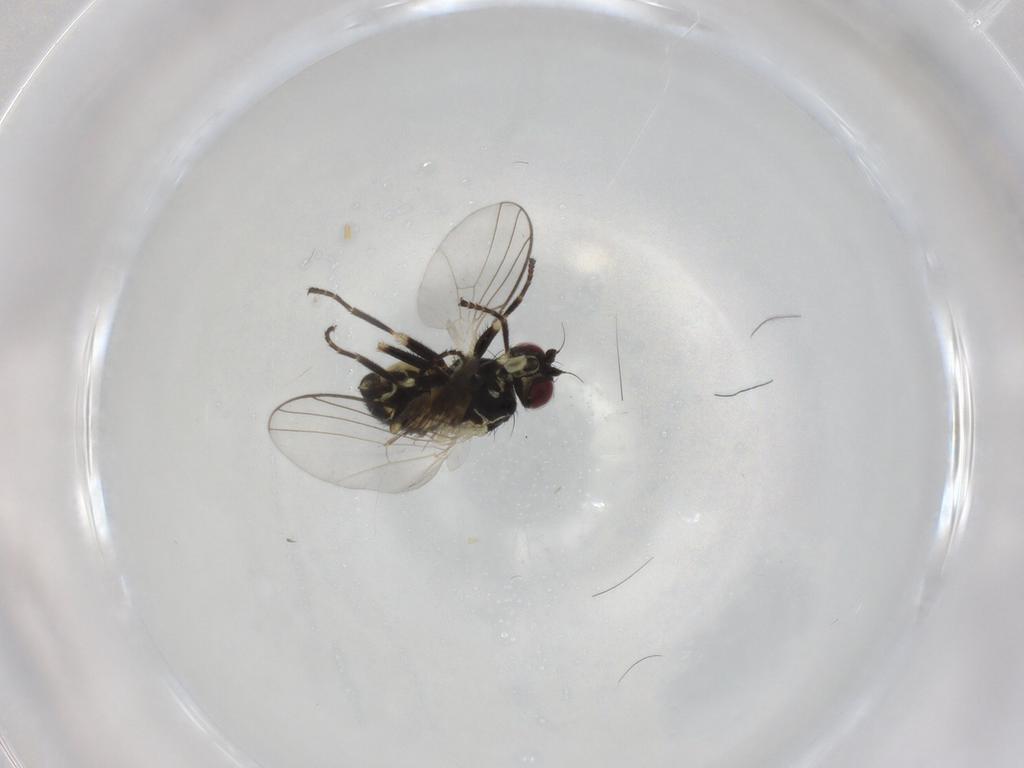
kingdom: Animalia
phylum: Arthropoda
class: Insecta
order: Diptera
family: Agromyzidae
